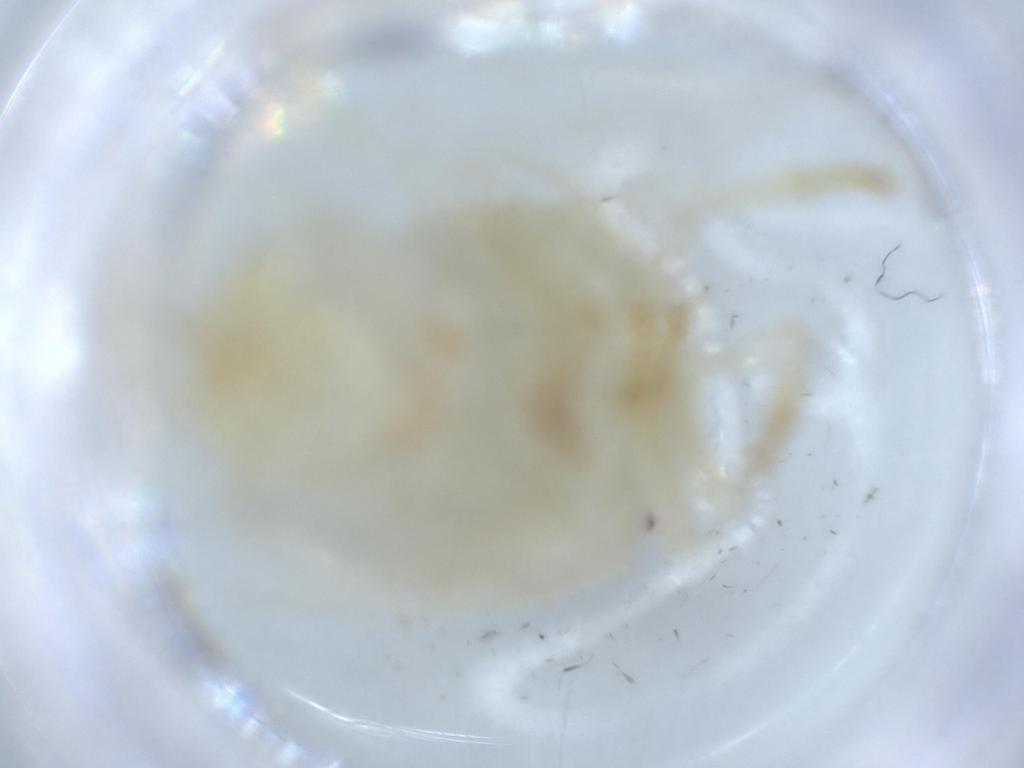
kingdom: Animalia
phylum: Arthropoda
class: Insecta
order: Hemiptera
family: Flatidae
